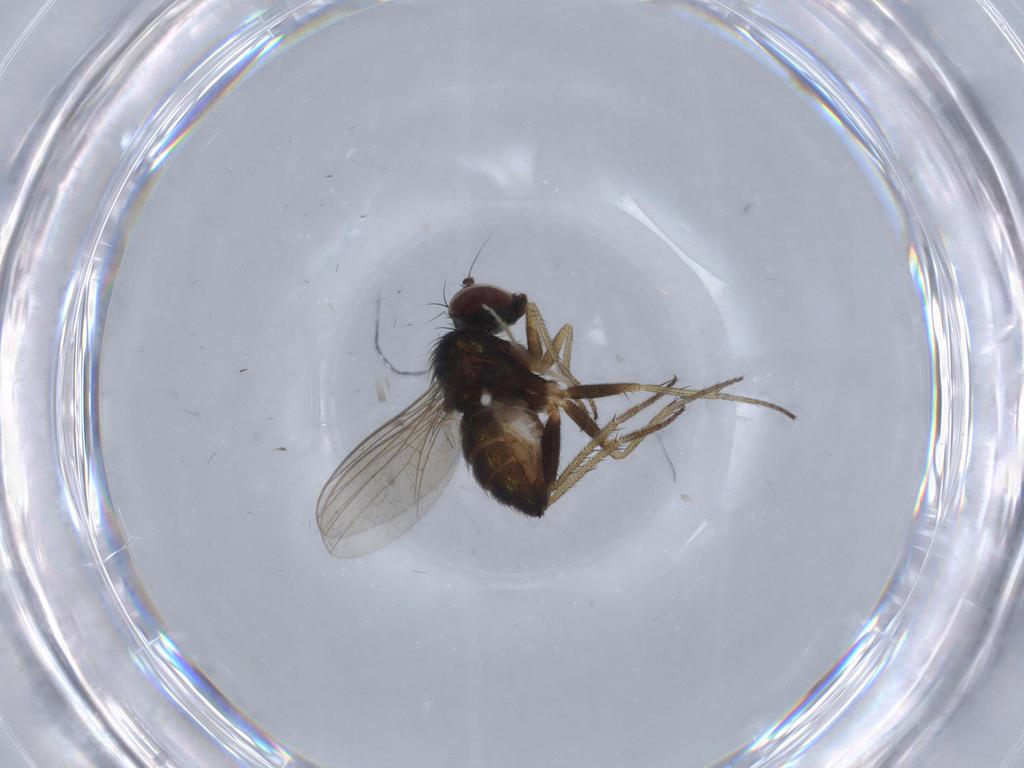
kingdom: Animalia
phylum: Arthropoda
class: Insecta
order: Diptera
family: Dolichopodidae
